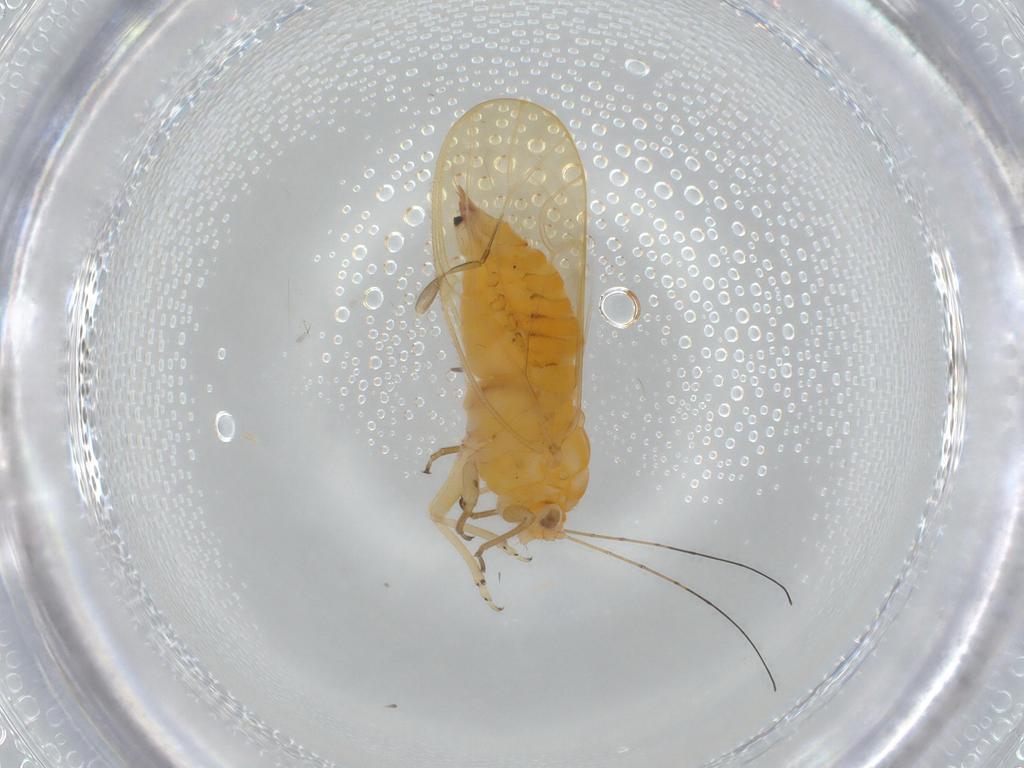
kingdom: Animalia
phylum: Arthropoda
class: Insecta
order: Hemiptera
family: Psyllidae
